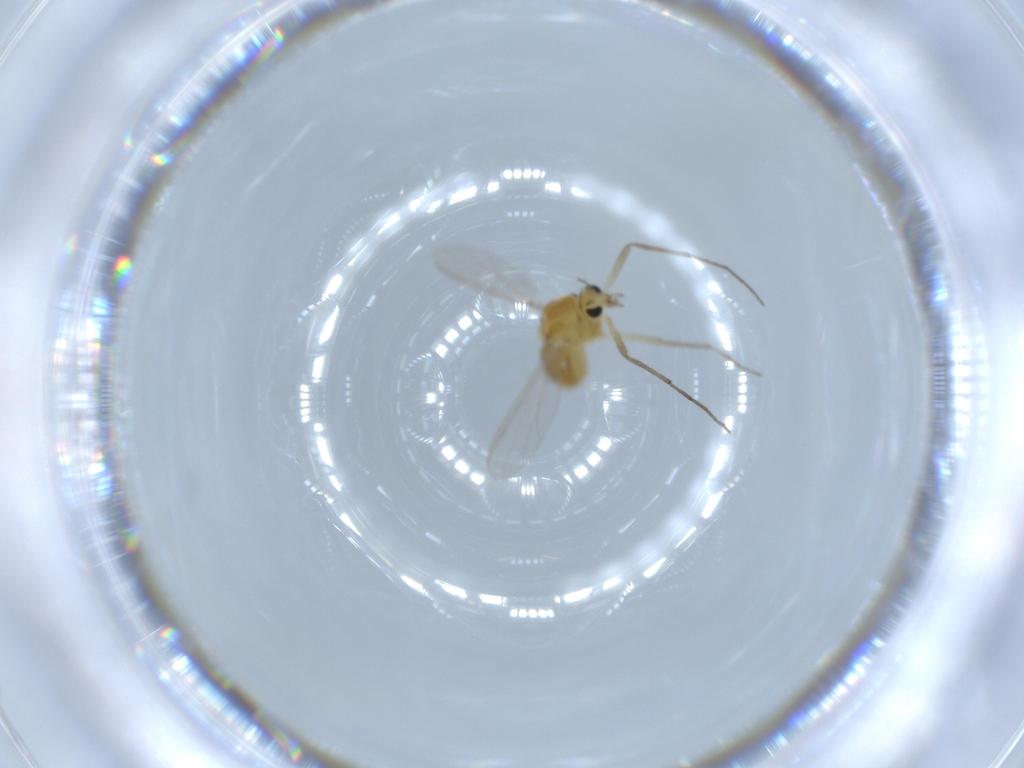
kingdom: Animalia
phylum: Arthropoda
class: Insecta
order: Diptera
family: Chironomidae
